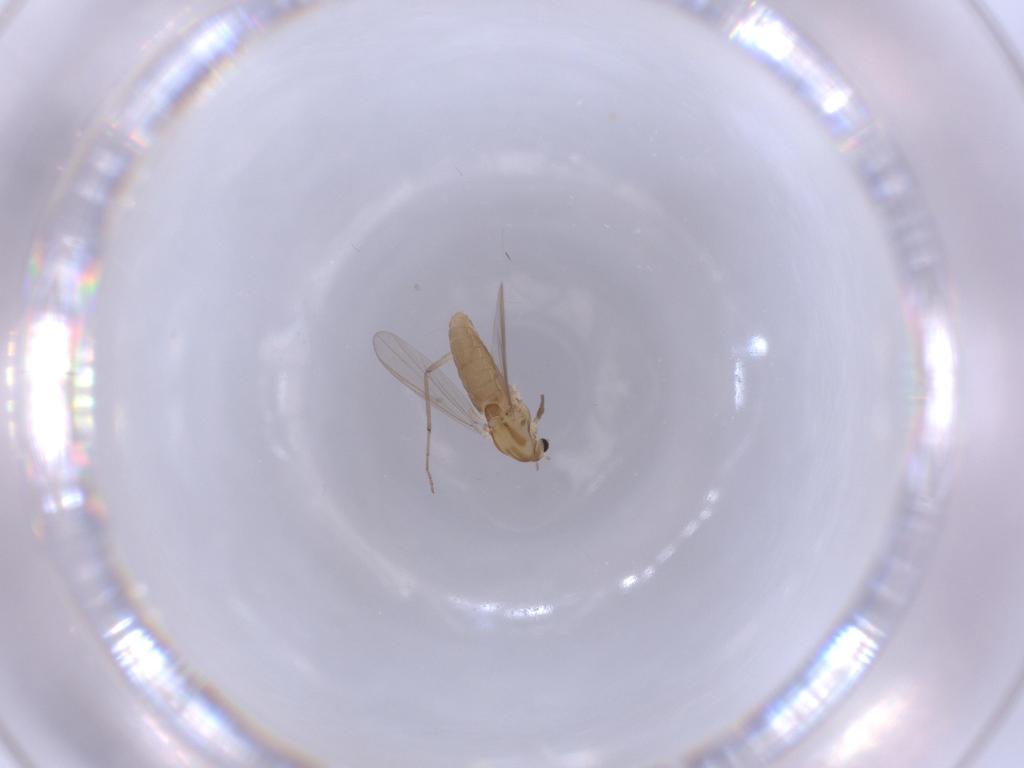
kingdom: Animalia
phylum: Arthropoda
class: Insecta
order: Diptera
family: Chironomidae
